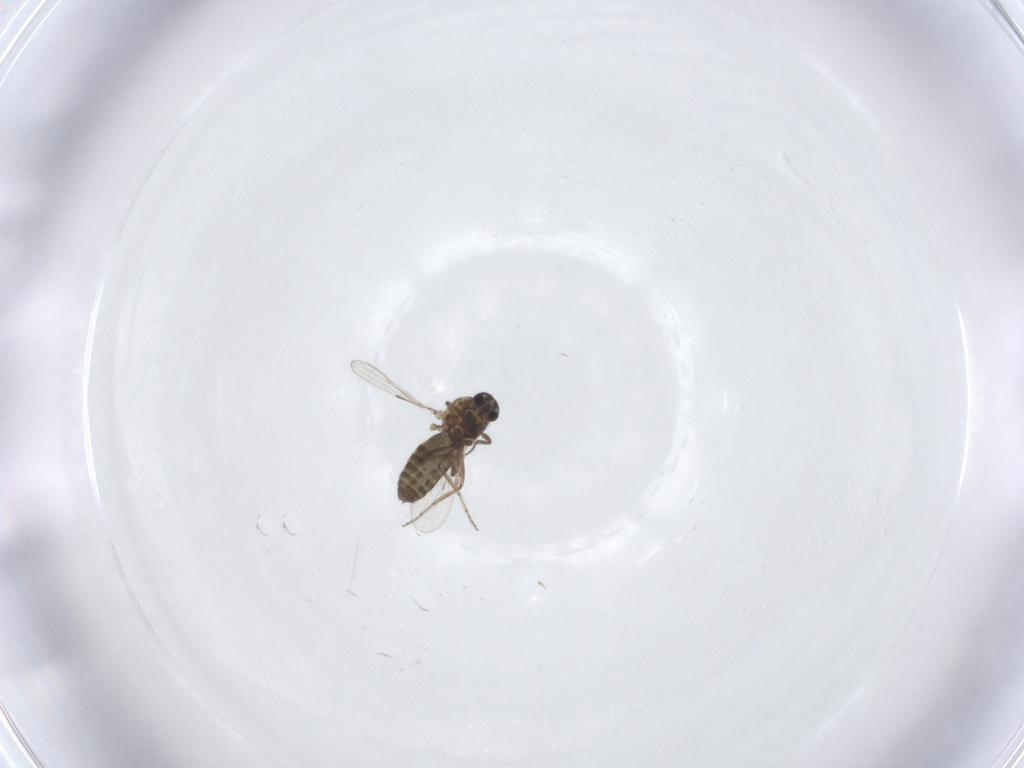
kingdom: Animalia
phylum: Arthropoda
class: Insecta
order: Diptera
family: Ceratopogonidae
